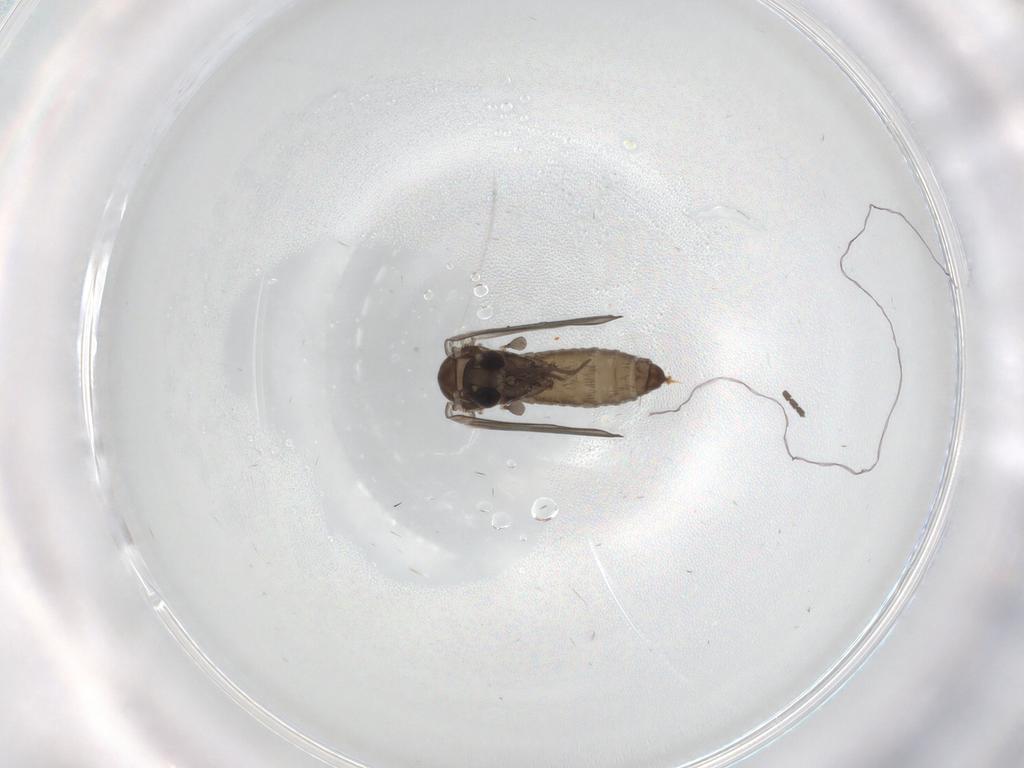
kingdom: Animalia
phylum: Arthropoda
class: Insecta
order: Diptera
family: Psychodidae
